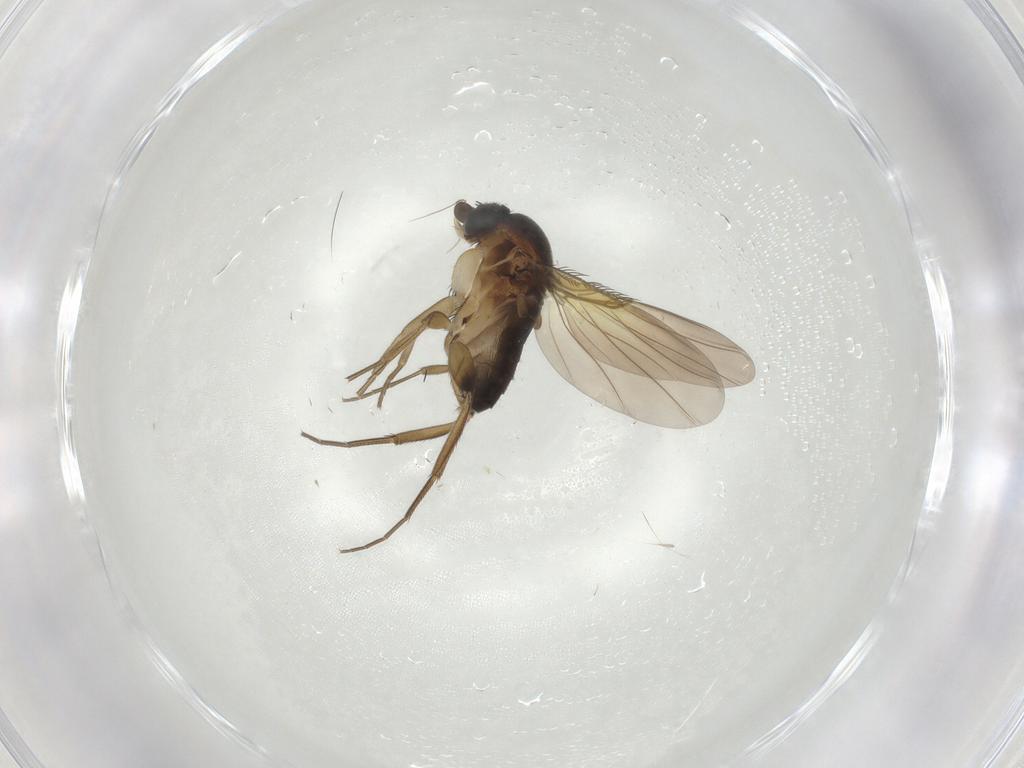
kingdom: Animalia
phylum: Arthropoda
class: Insecta
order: Diptera
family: Phoridae
